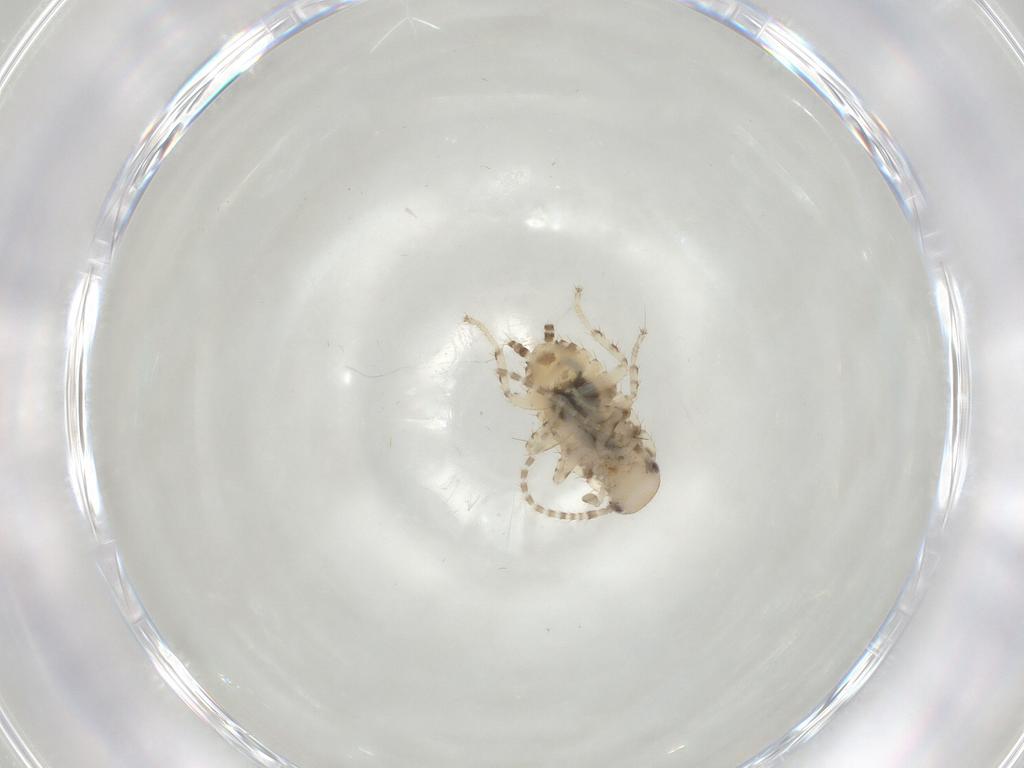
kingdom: Animalia
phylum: Arthropoda
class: Insecta
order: Blattodea
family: Ectobiidae
